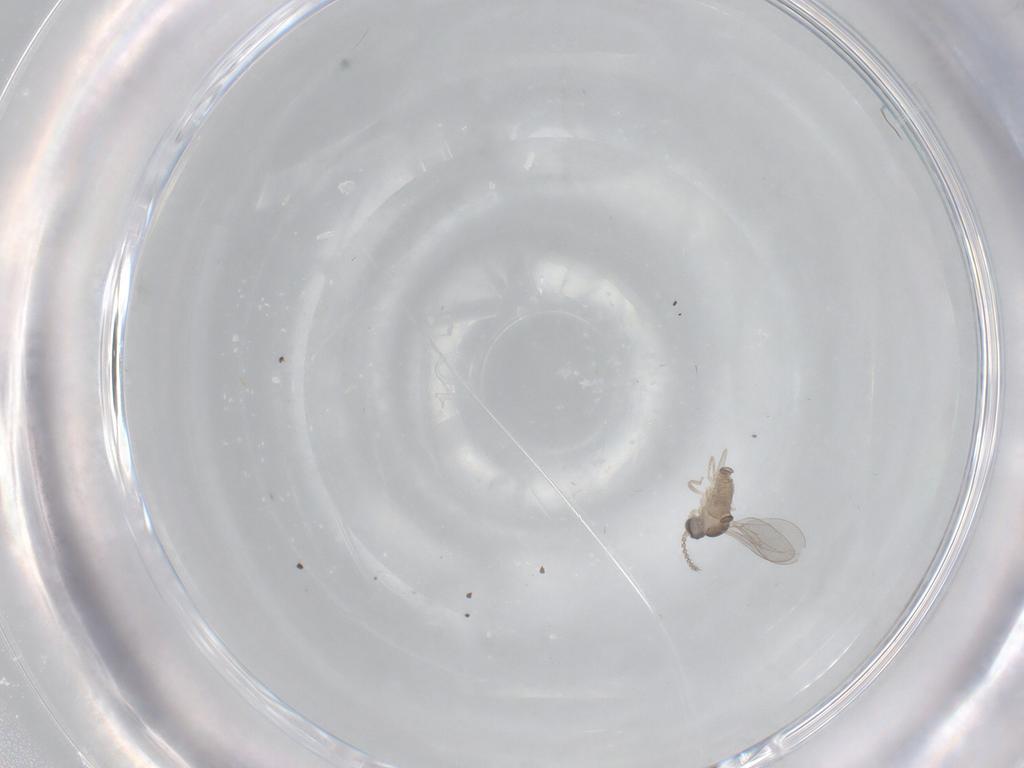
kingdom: Animalia
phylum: Arthropoda
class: Insecta
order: Diptera
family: Cecidomyiidae
